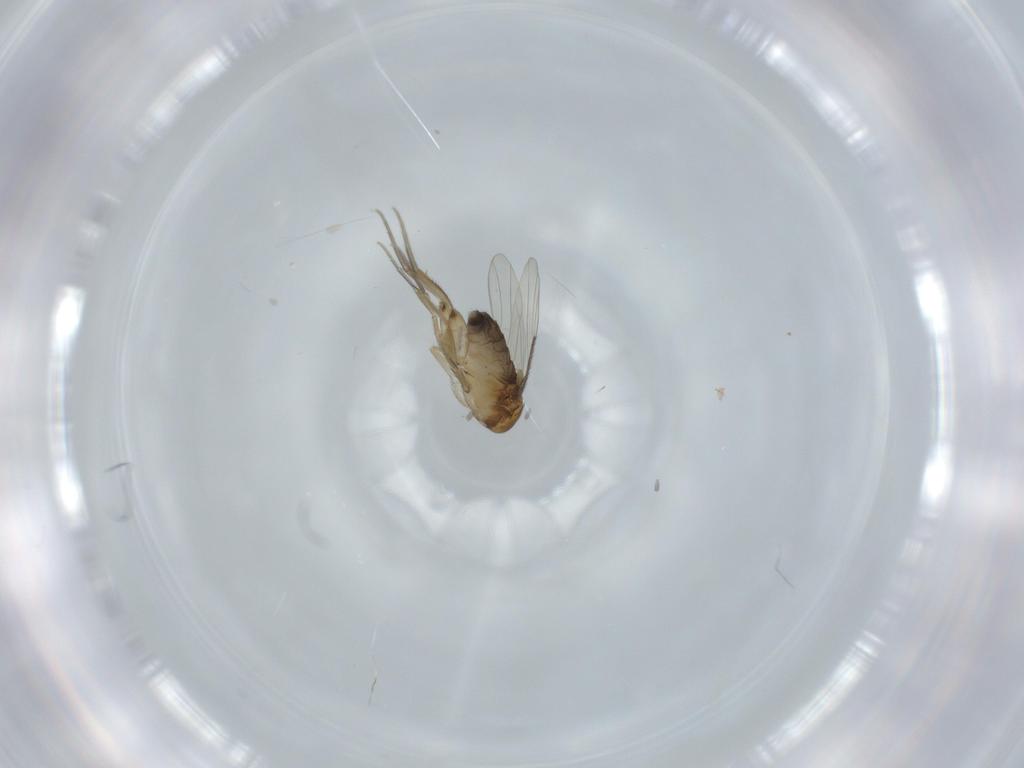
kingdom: Animalia
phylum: Arthropoda
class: Insecta
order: Diptera
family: Phoridae
